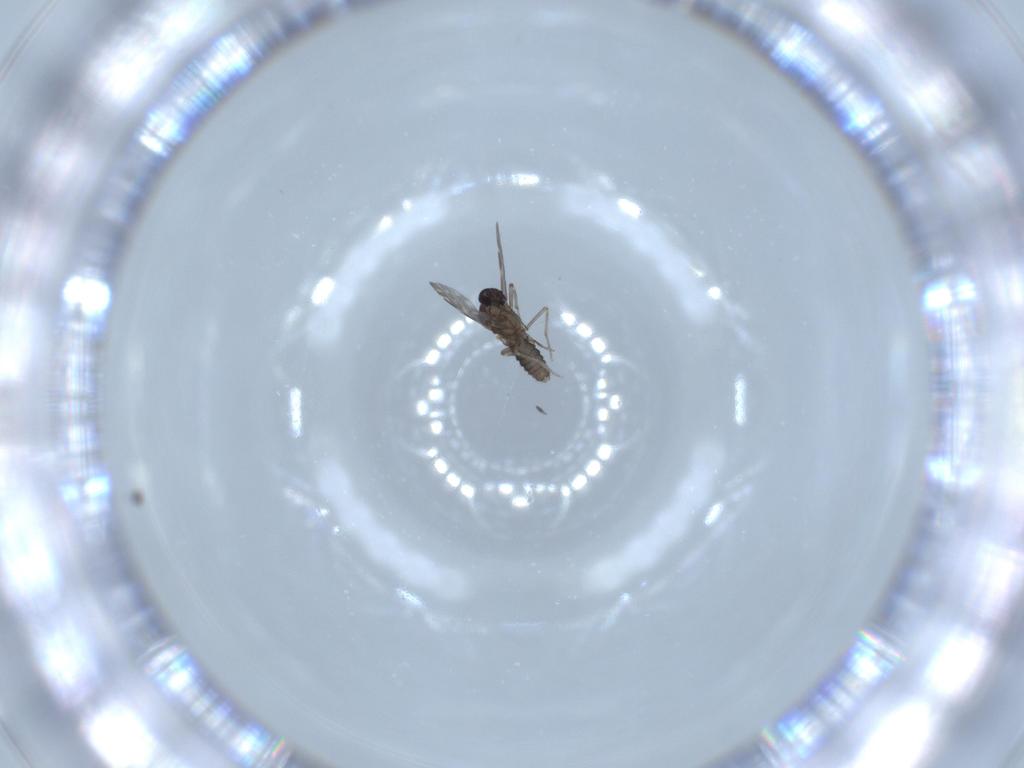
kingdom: Animalia
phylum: Arthropoda
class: Insecta
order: Diptera
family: Ceratopogonidae
